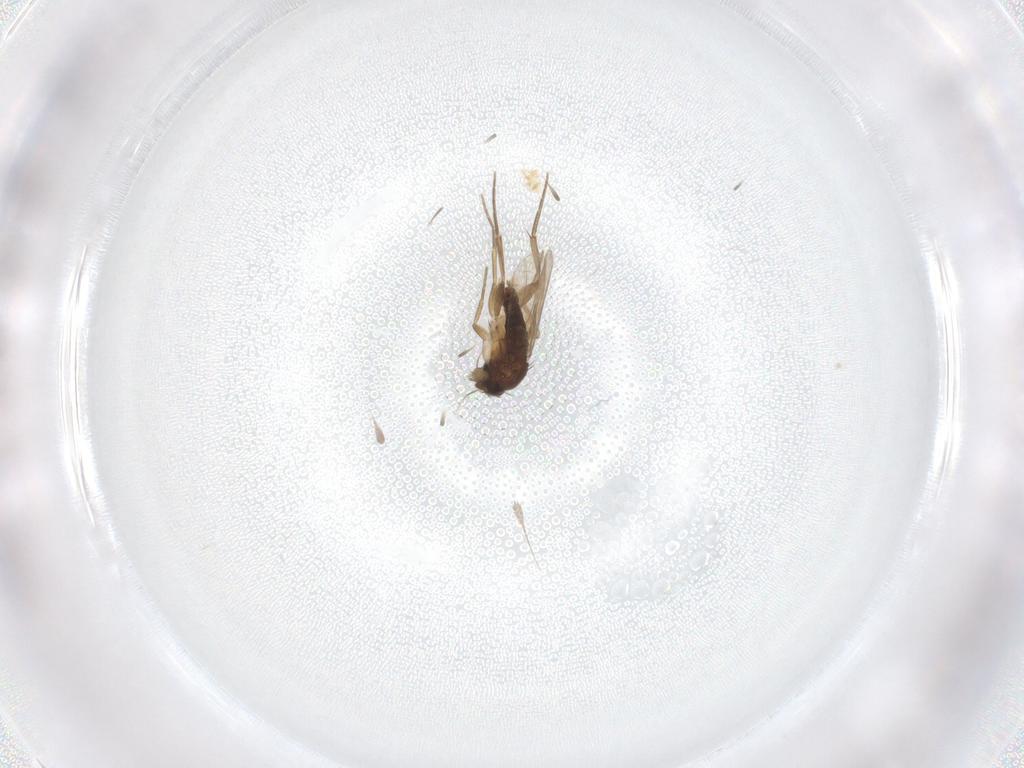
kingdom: Animalia
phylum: Arthropoda
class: Insecta
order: Diptera
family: Phoridae
